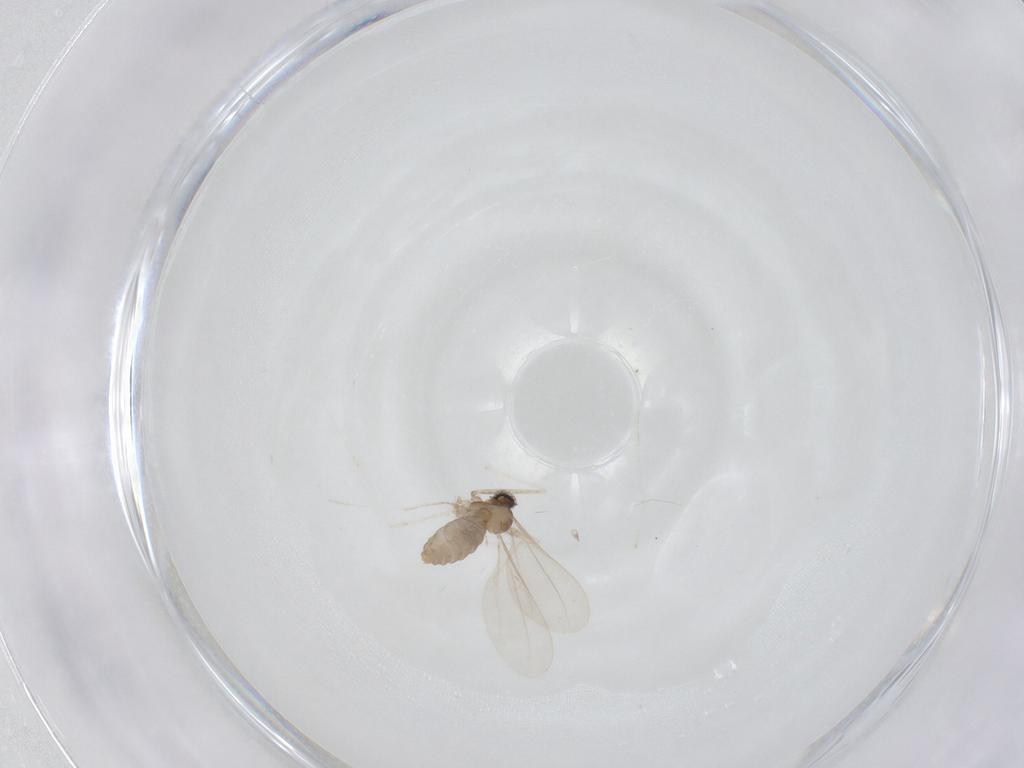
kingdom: Animalia
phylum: Arthropoda
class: Insecta
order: Diptera
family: Cecidomyiidae
